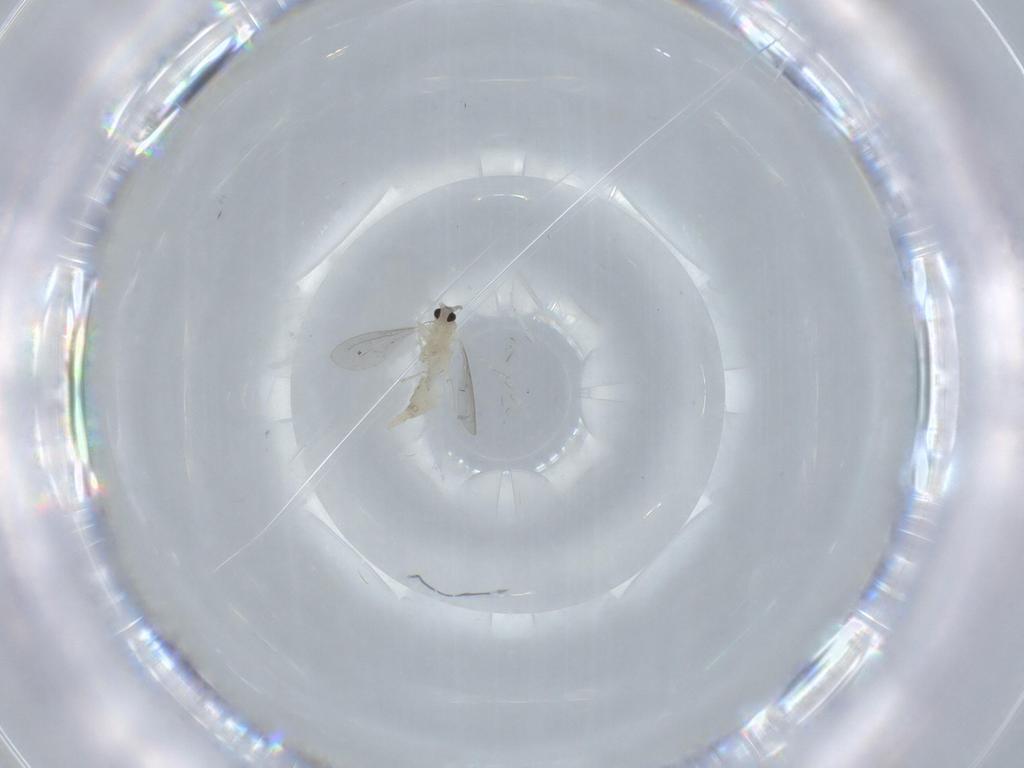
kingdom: Animalia
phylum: Arthropoda
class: Insecta
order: Diptera
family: Cecidomyiidae
